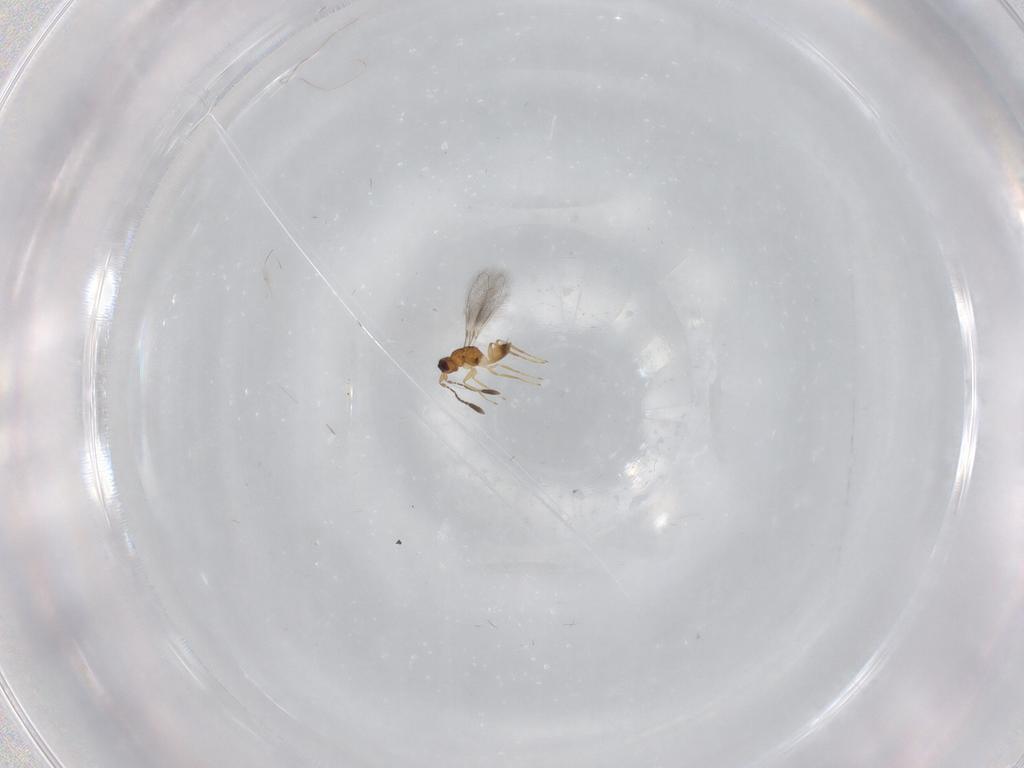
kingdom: Animalia
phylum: Arthropoda
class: Insecta
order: Hymenoptera
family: Mymaridae
